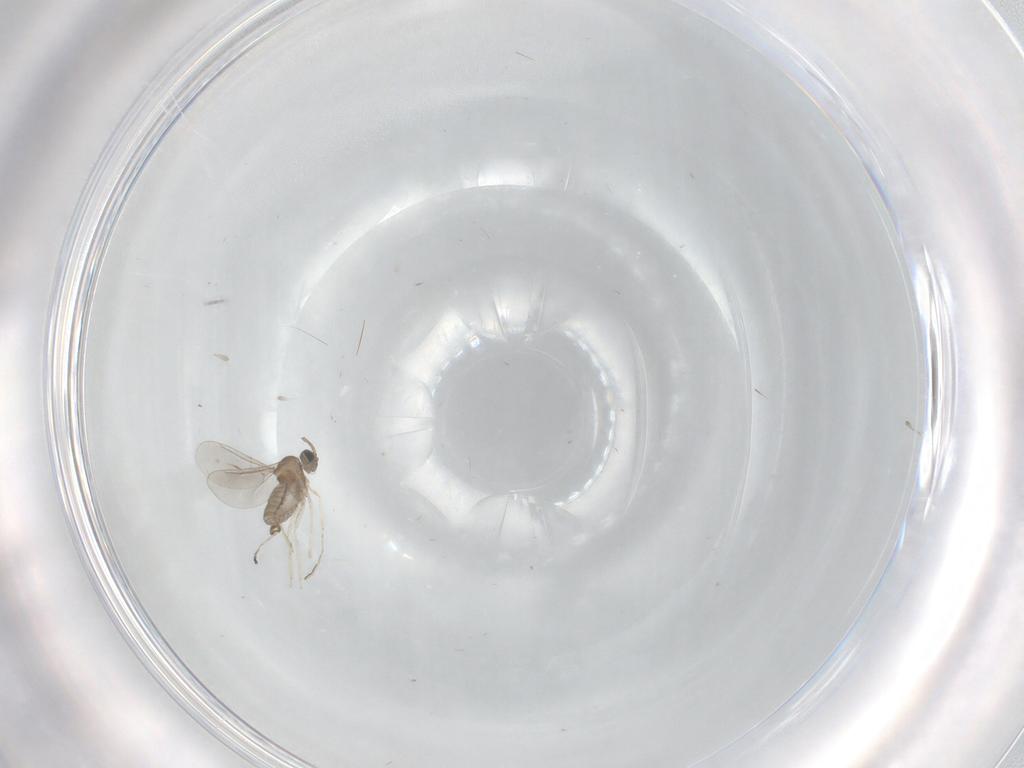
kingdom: Animalia
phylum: Arthropoda
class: Insecta
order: Diptera
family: Cecidomyiidae
